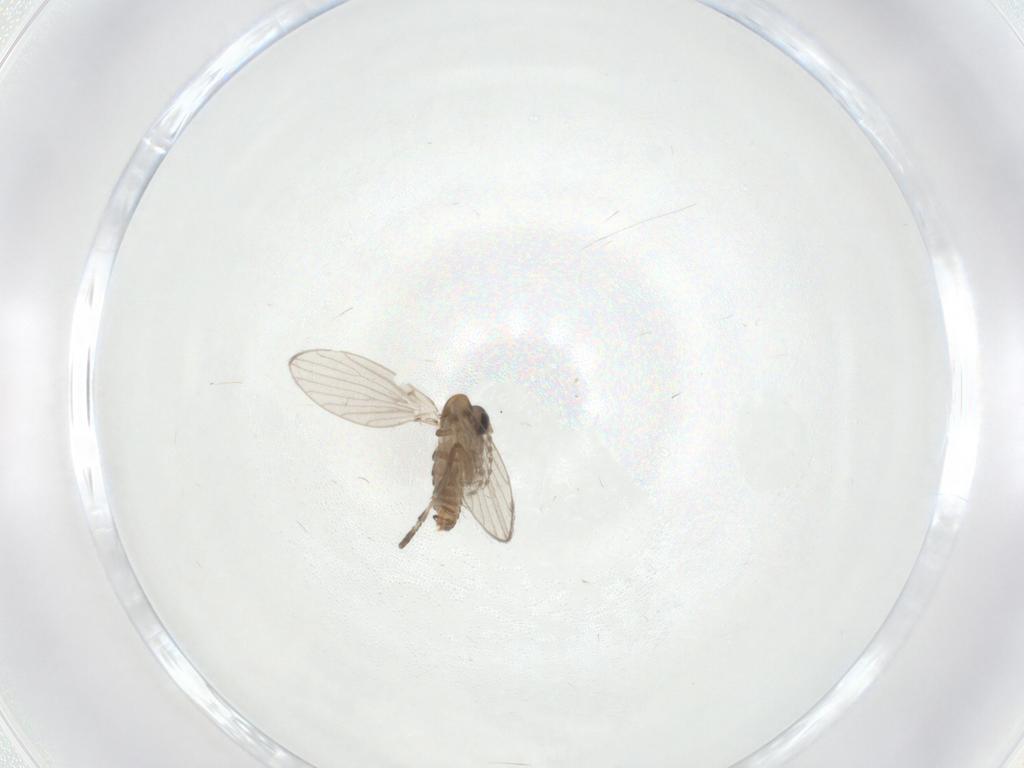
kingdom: Animalia
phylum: Arthropoda
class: Insecta
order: Diptera
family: Psychodidae
